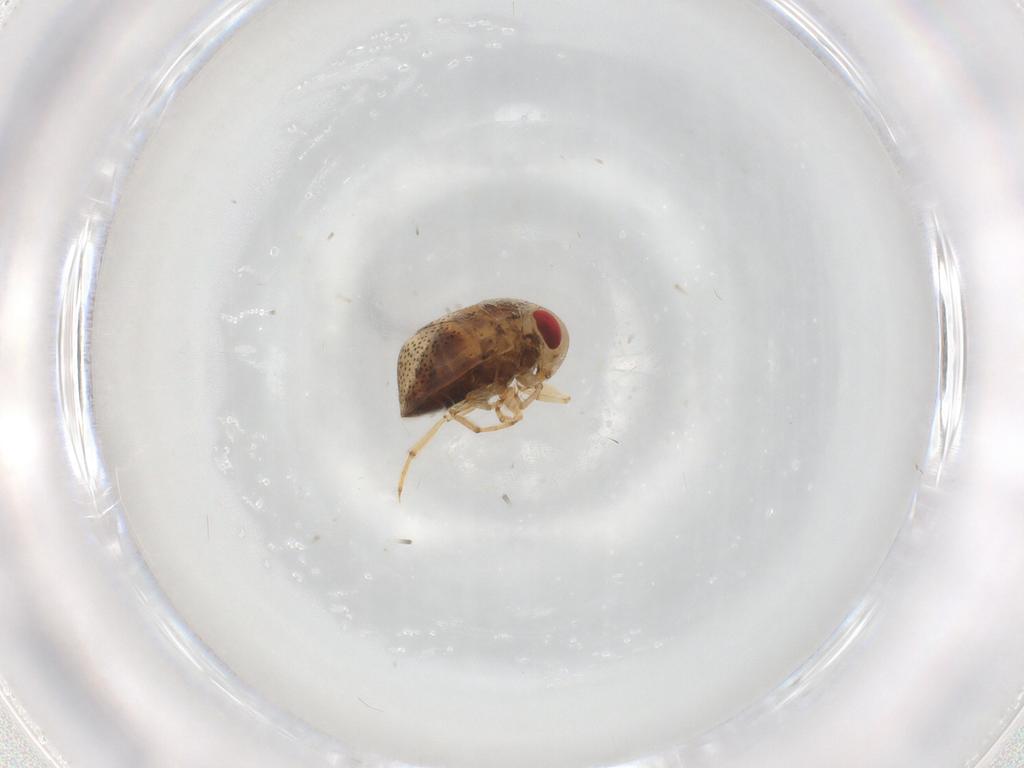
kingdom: Animalia
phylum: Arthropoda
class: Insecta
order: Hemiptera
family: Pleidae
